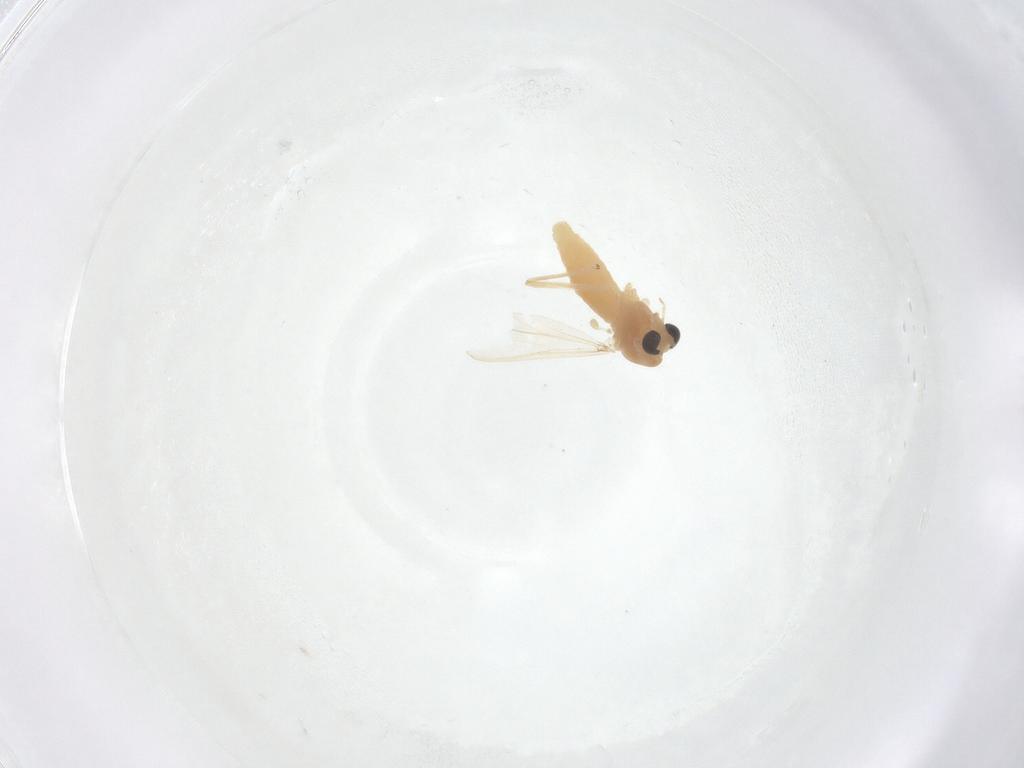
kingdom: Animalia
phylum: Arthropoda
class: Insecta
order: Diptera
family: Chironomidae
